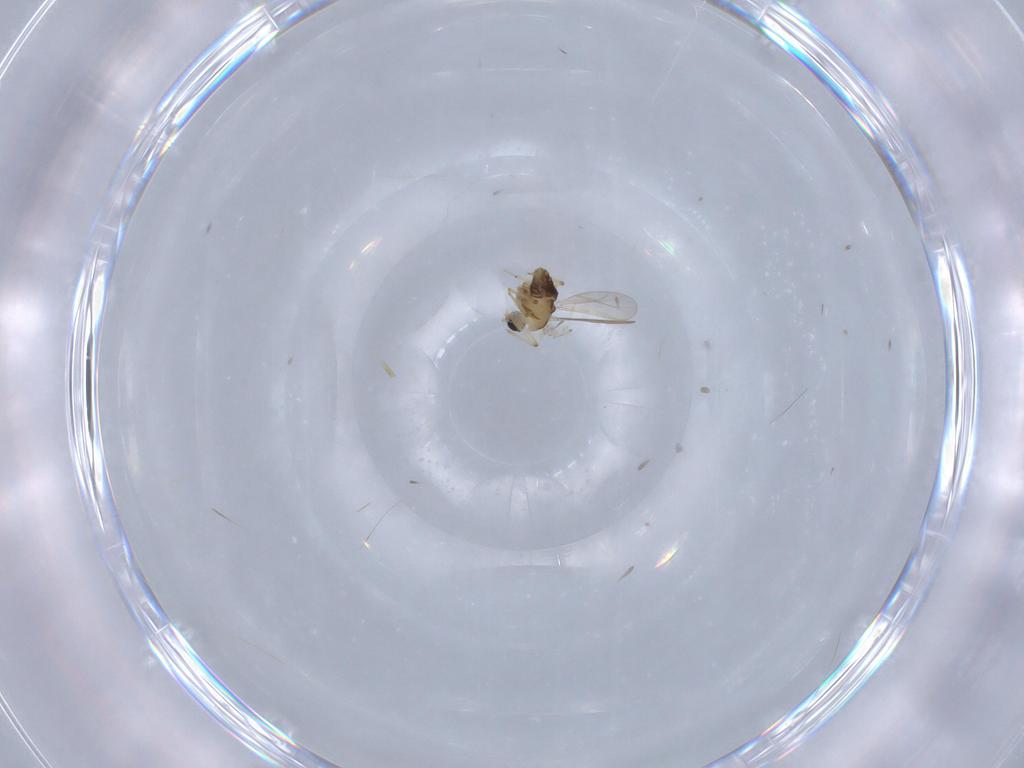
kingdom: Animalia
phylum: Arthropoda
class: Insecta
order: Diptera
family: Chironomidae
